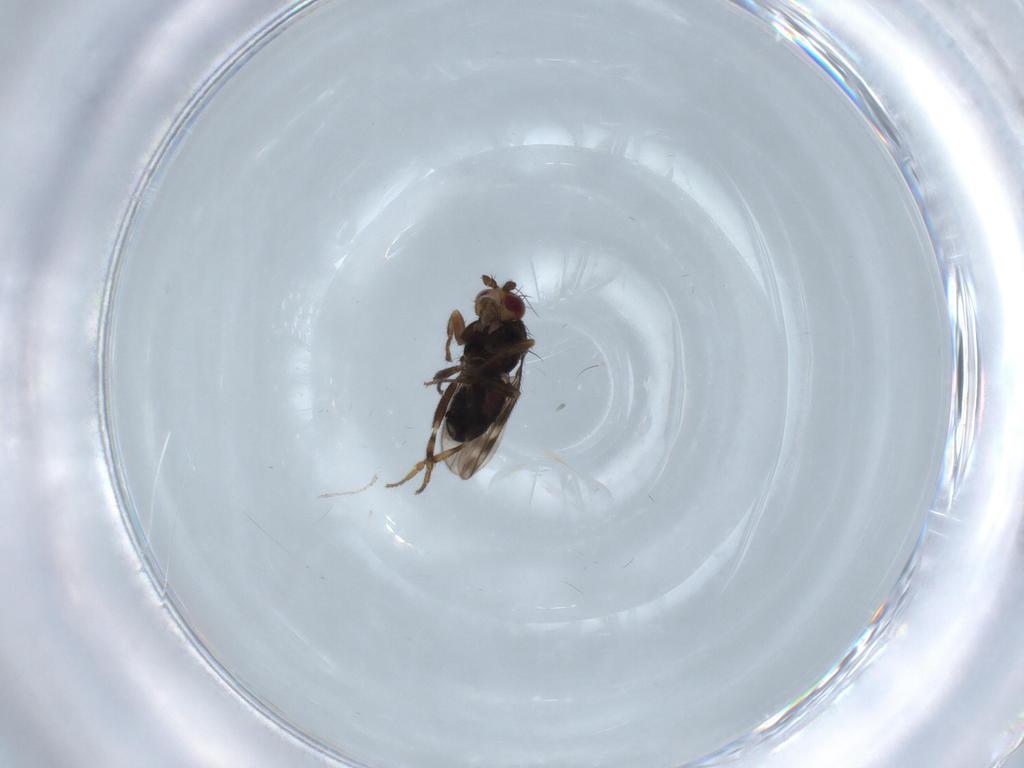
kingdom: Animalia
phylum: Arthropoda
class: Insecta
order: Diptera
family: Sphaeroceridae
